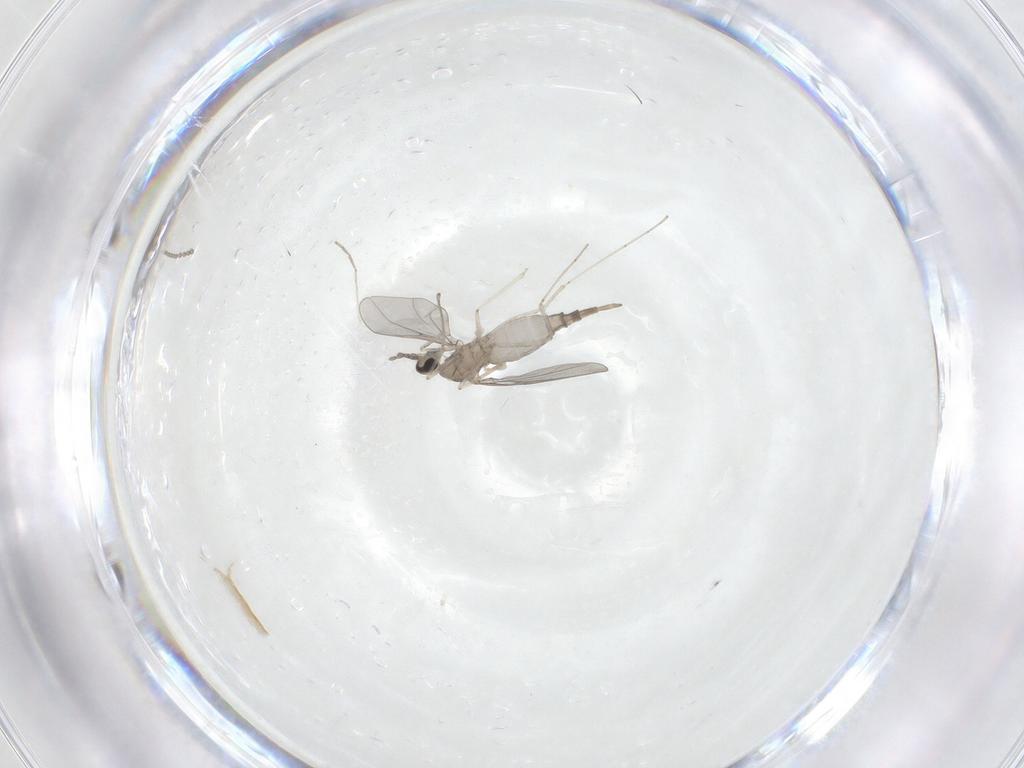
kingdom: Animalia
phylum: Arthropoda
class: Insecta
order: Diptera
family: Cecidomyiidae
